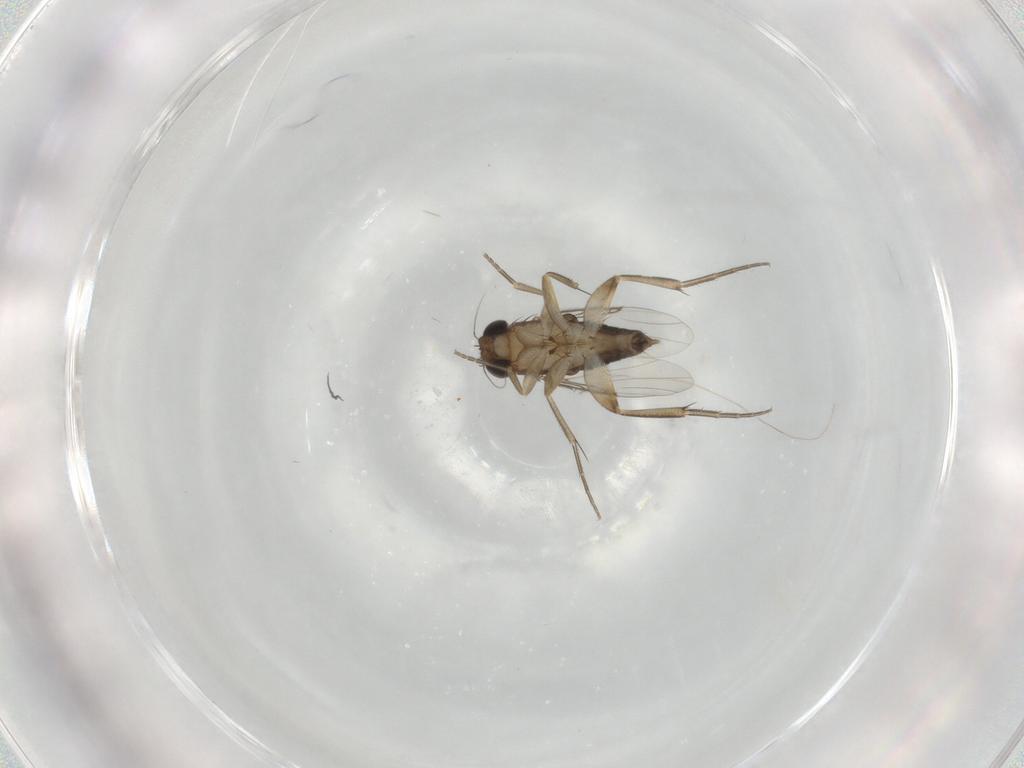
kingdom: Animalia
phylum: Arthropoda
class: Insecta
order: Diptera
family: Phoridae
